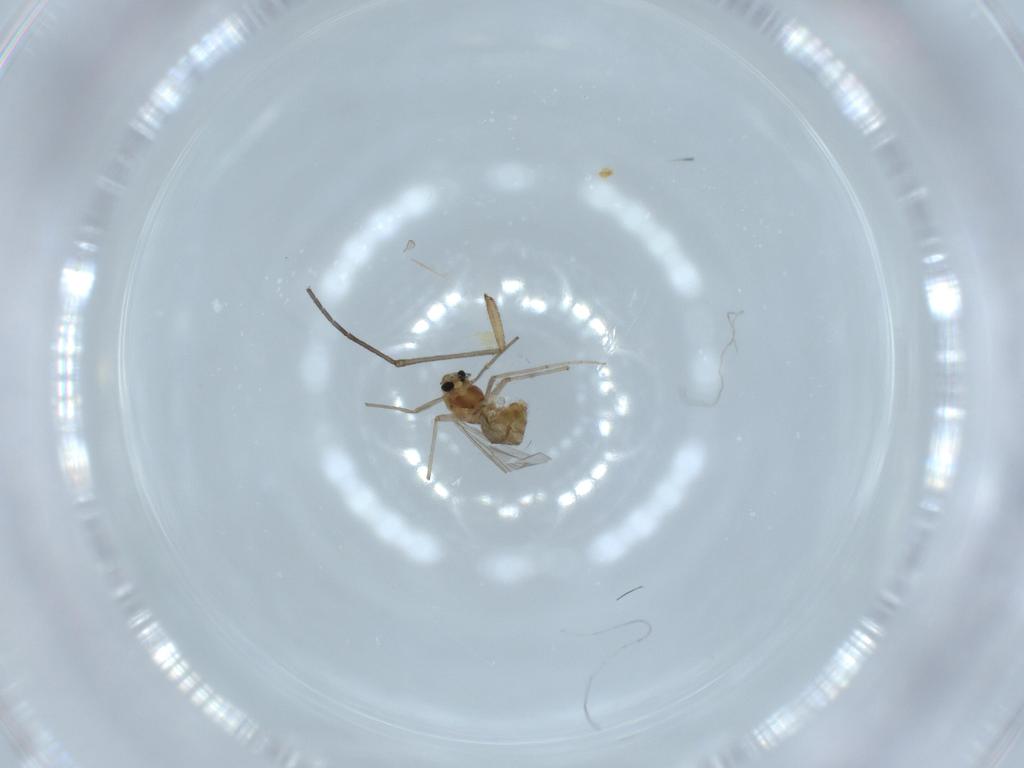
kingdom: Animalia
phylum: Arthropoda
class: Insecta
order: Diptera
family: Chironomidae
